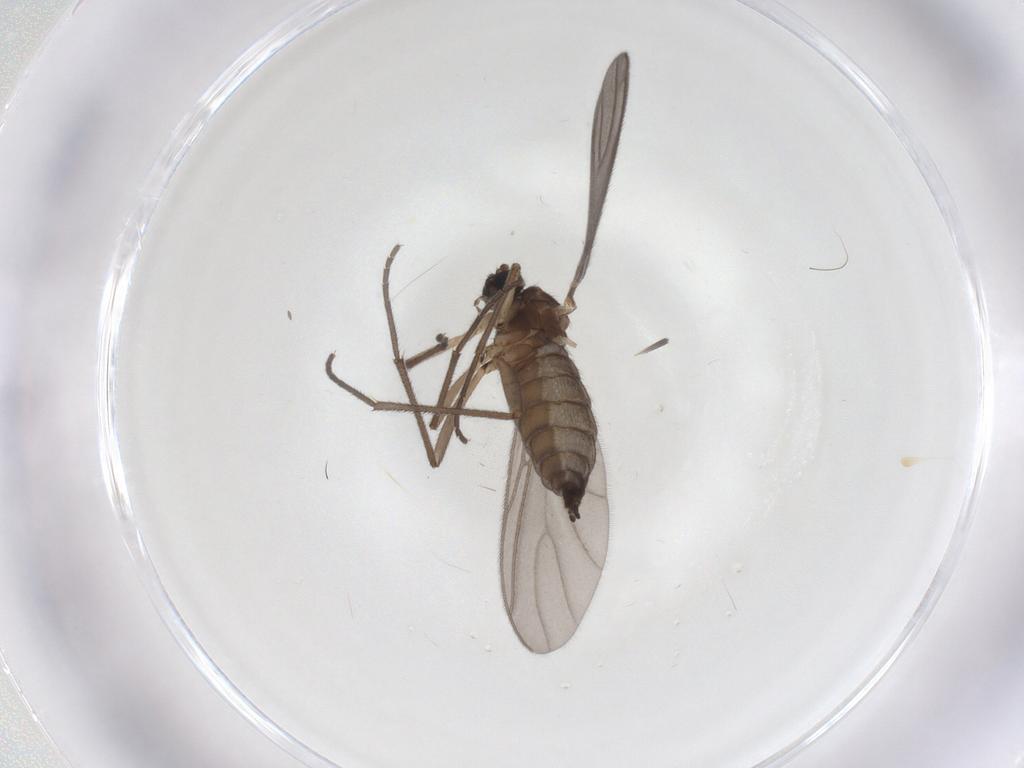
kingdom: Animalia
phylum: Arthropoda
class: Insecta
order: Diptera
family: Sciaridae
